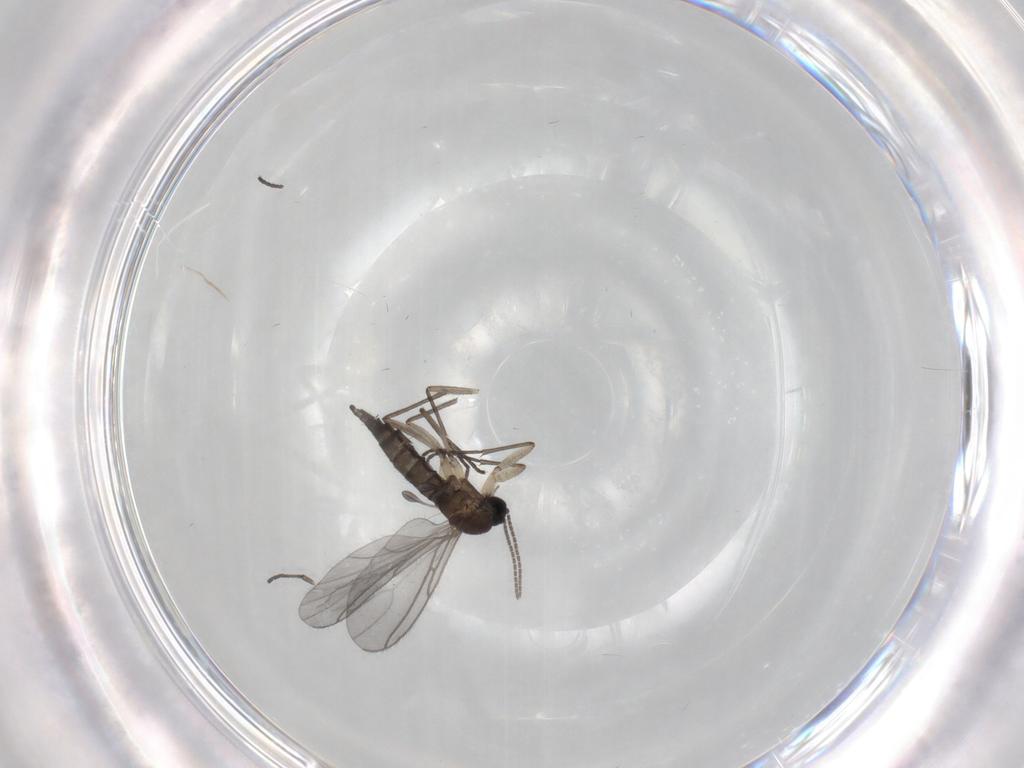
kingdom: Animalia
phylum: Arthropoda
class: Insecta
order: Diptera
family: Sciaridae
